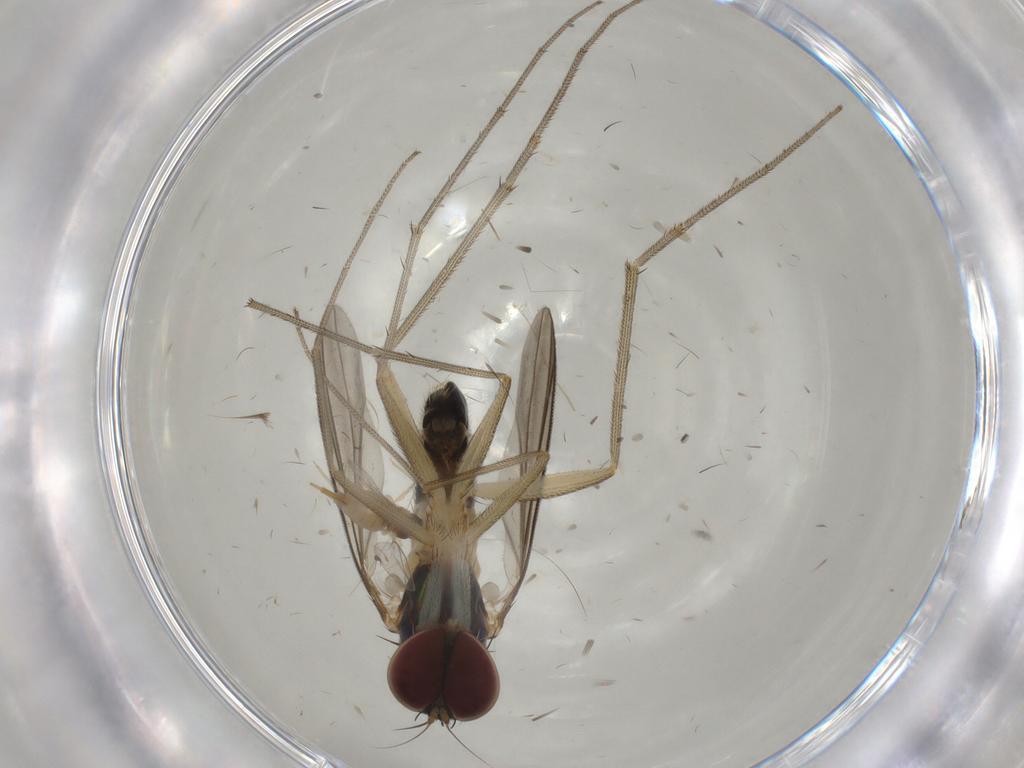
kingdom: Animalia
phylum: Arthropoda
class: Insecta
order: Diptera
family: Cecidomyiidae
